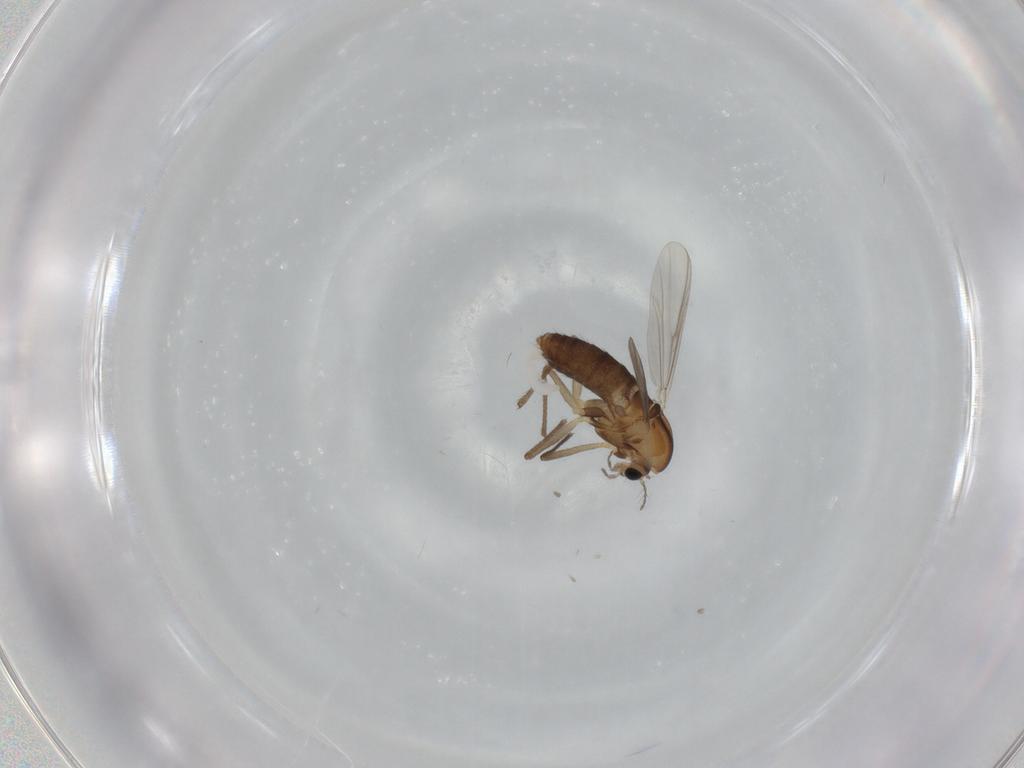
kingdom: Animalia
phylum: Arthropoda
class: Insecta
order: Diptera
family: Chironomidae
